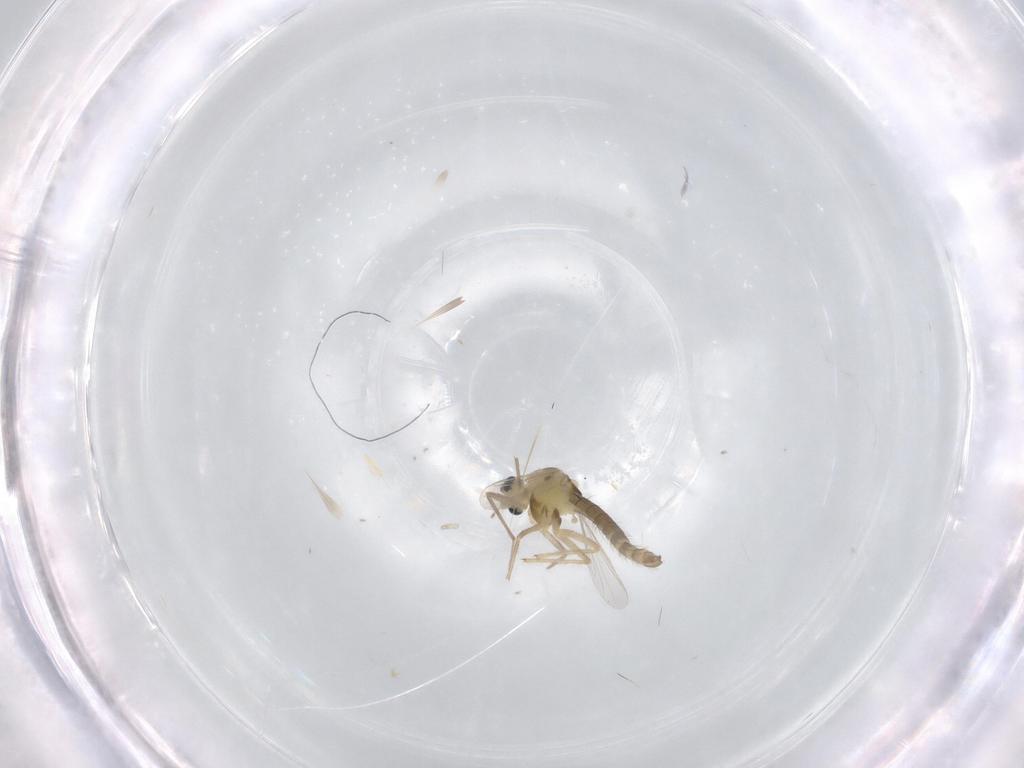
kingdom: Animalia
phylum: Arthropoda
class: Insecta
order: Diptera
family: Chironomidae
